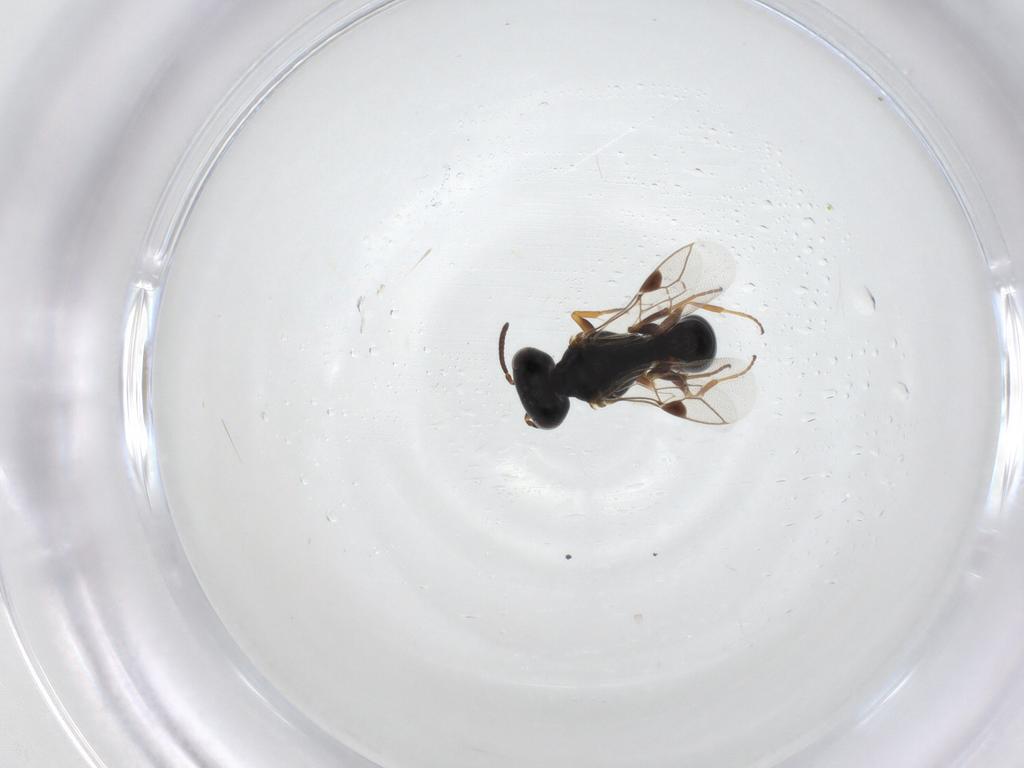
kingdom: Animalia
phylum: Arthropoda
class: Insecta
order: Hymenoptera
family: Pemphredonidae
